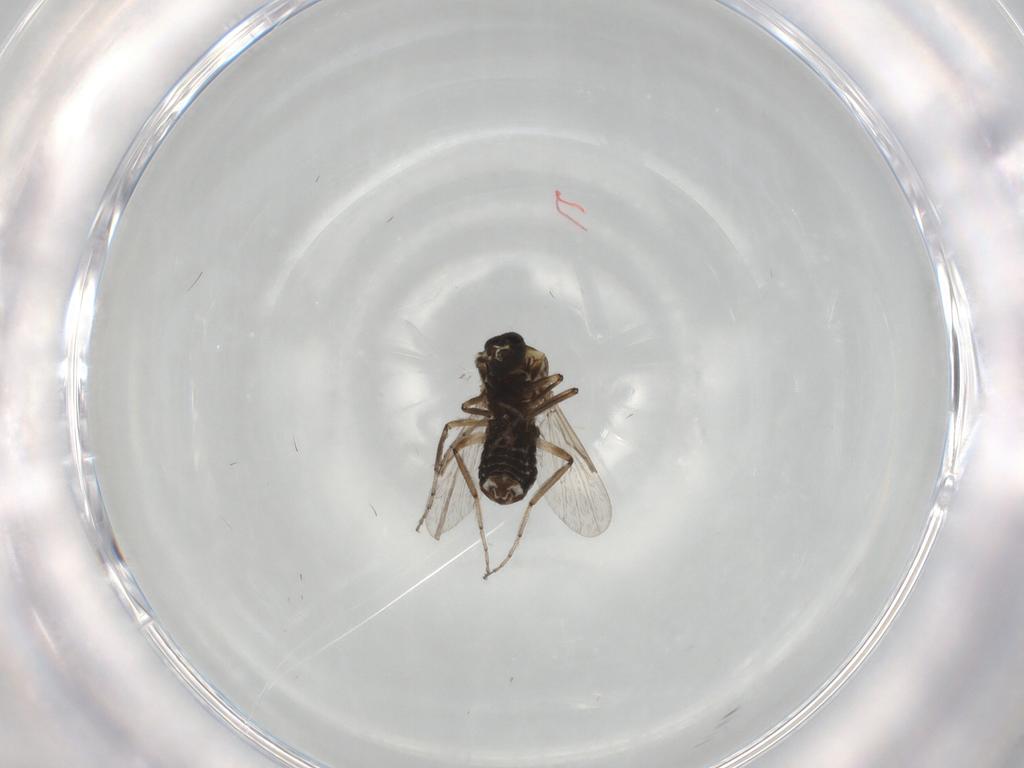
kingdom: Animalia
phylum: Arthropoda
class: Insecta
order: Diptera
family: Ceratopogonidae
